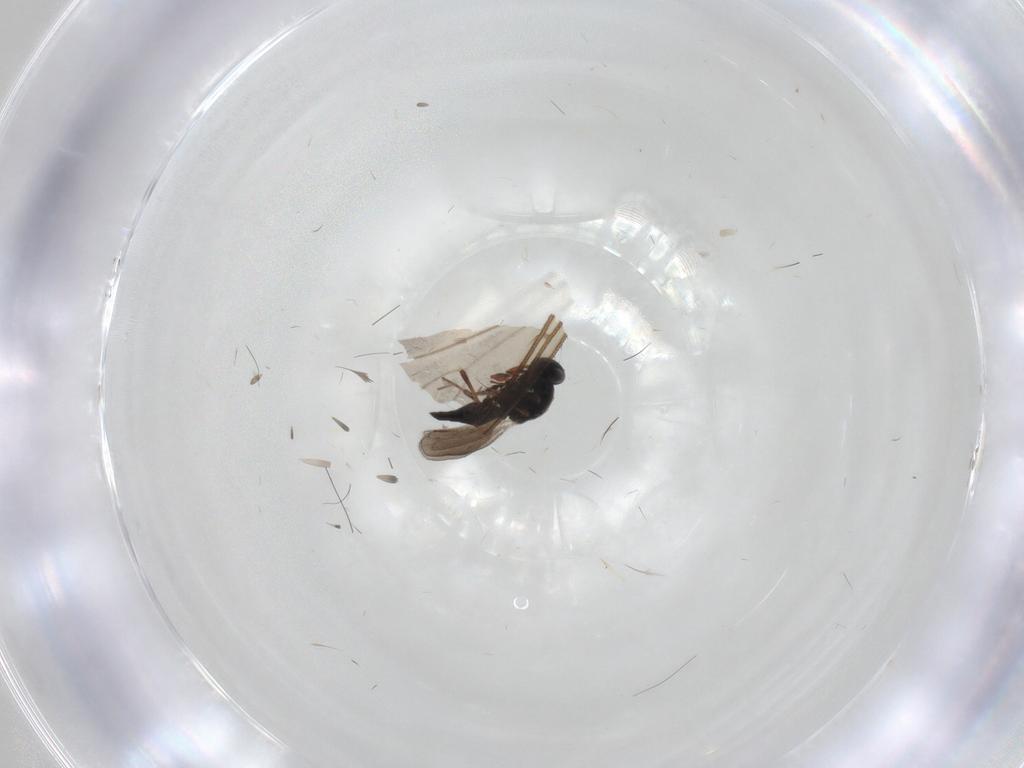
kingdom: Animalia
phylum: Arthropoda
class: Insecta
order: Hymenoptera
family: Platygastridae
